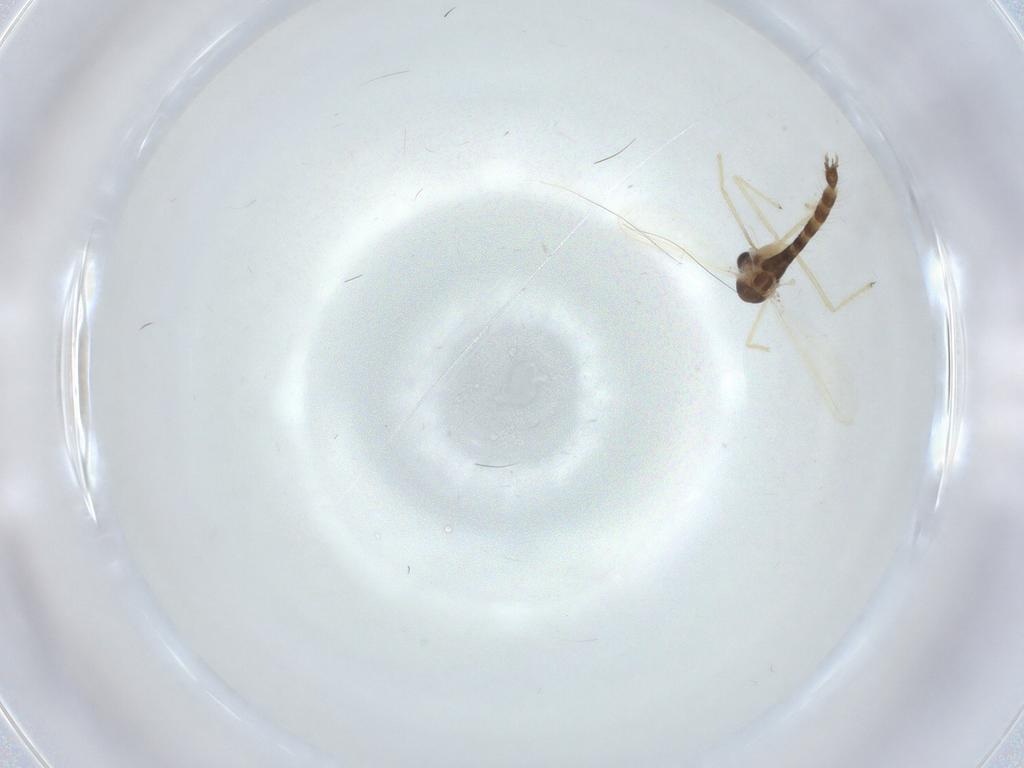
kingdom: Animalia
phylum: Arthropoda
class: Insecta
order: Diptera
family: Chironomidae
